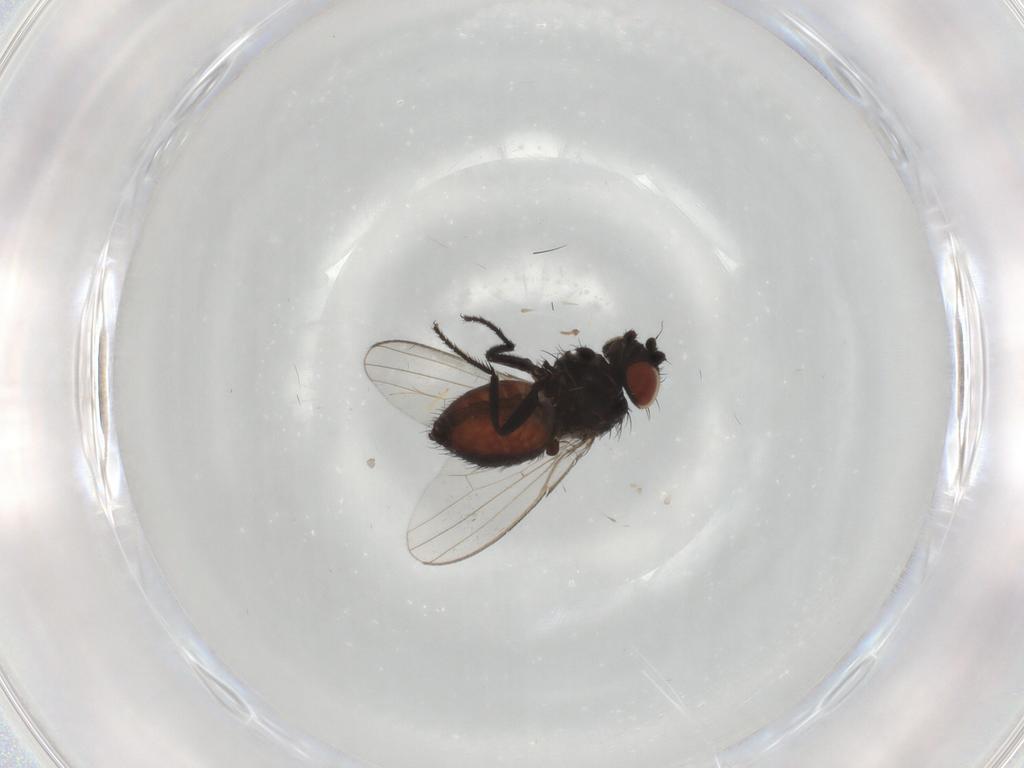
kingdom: Animalia
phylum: Arthropoda
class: Insecta
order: Diptera
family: Milichiidae
